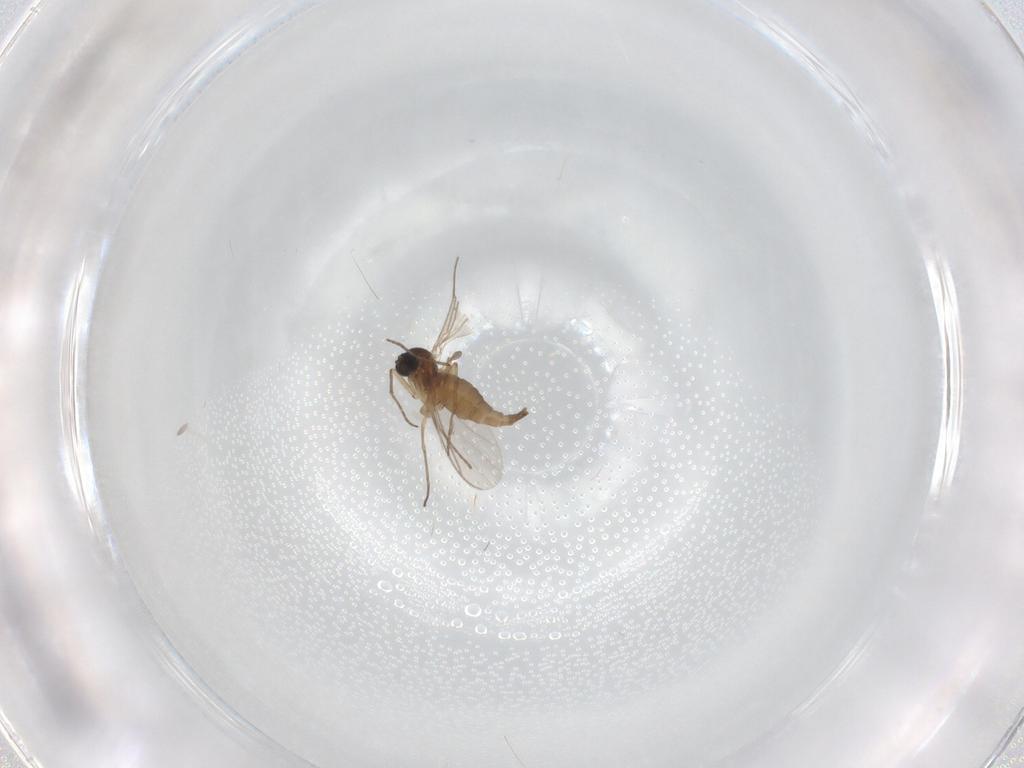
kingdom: Animalia
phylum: Arthropoda
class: Insecta
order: Diptera
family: Sciaridae
